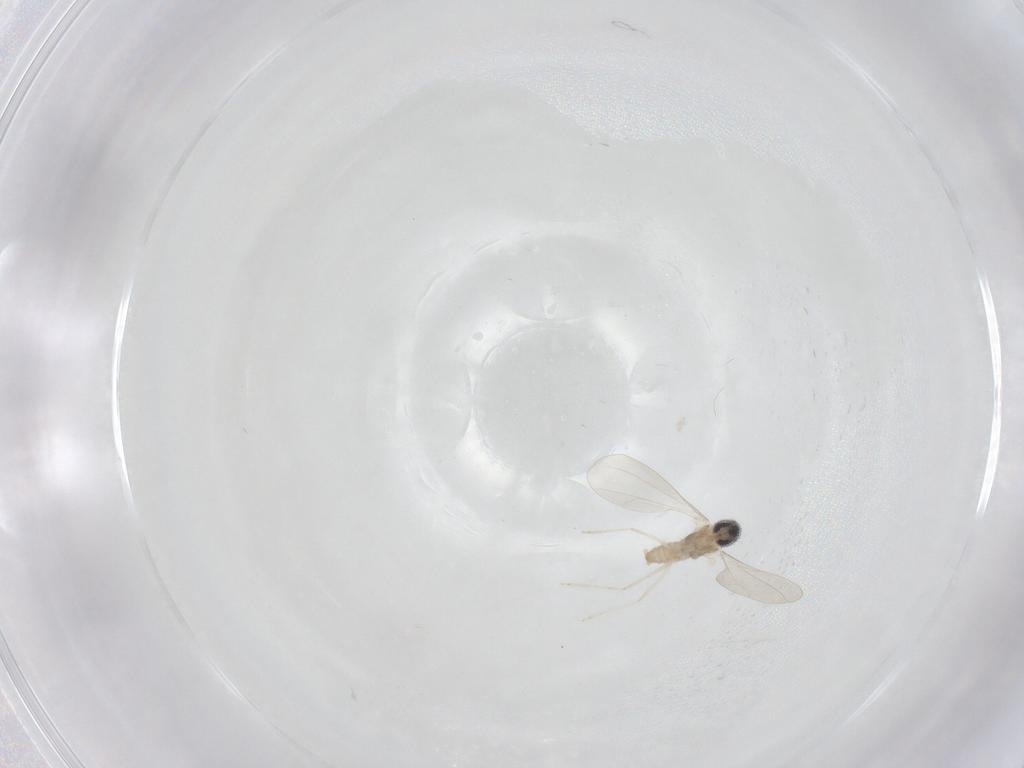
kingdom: Animalia
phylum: Arthropoda
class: Insecta
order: Diptera
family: Cecidomyiidae
